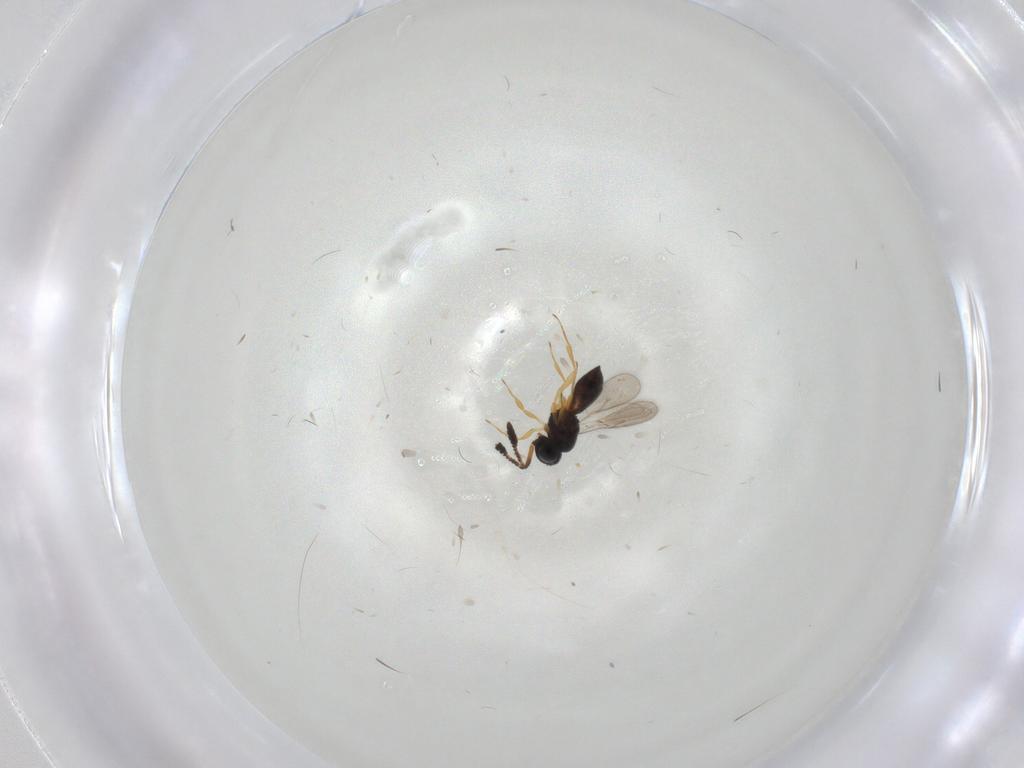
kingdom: Animalia
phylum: Arthropoda
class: Insecta
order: Hymenoptera
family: Scelionidae
